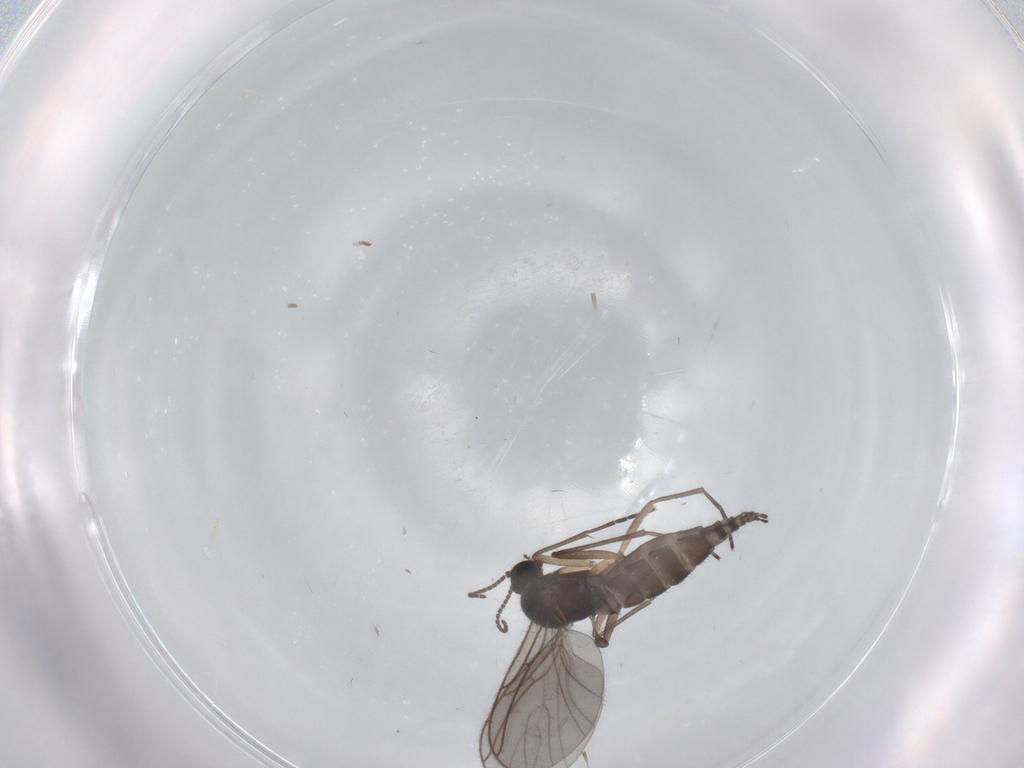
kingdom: Animalia
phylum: Arthropoda
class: Insecta
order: Diptera
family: Sciaridae
